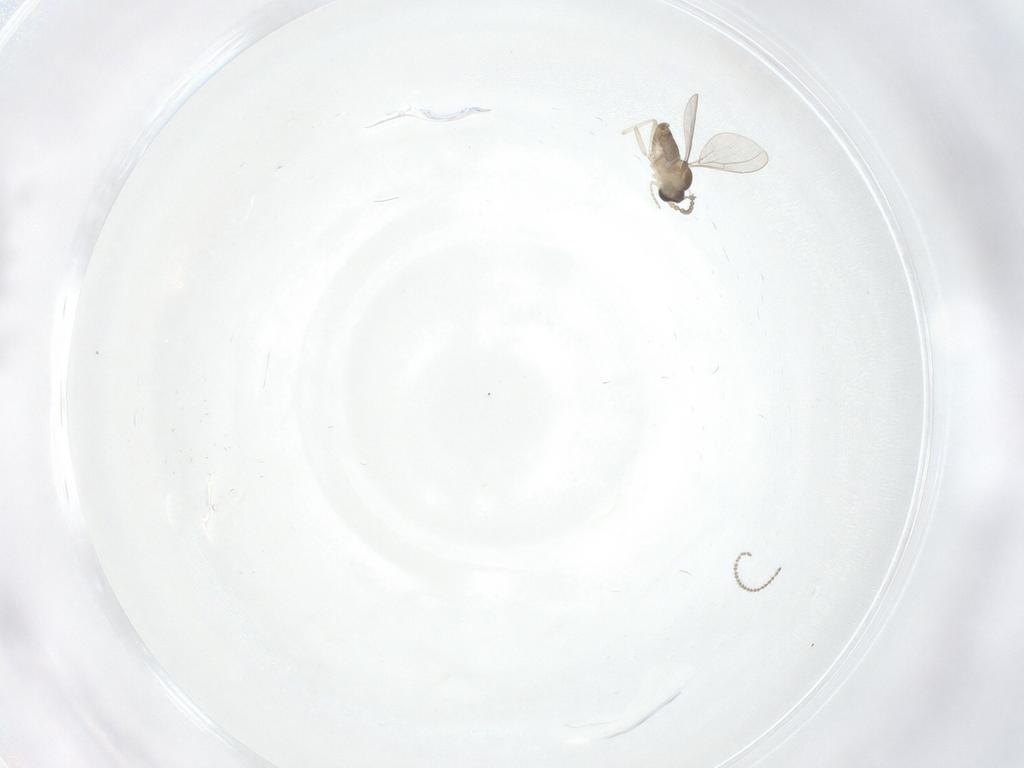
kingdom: Animalia
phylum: Arthropoda
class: Insecta
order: Diptera
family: Cecidomyiidae
